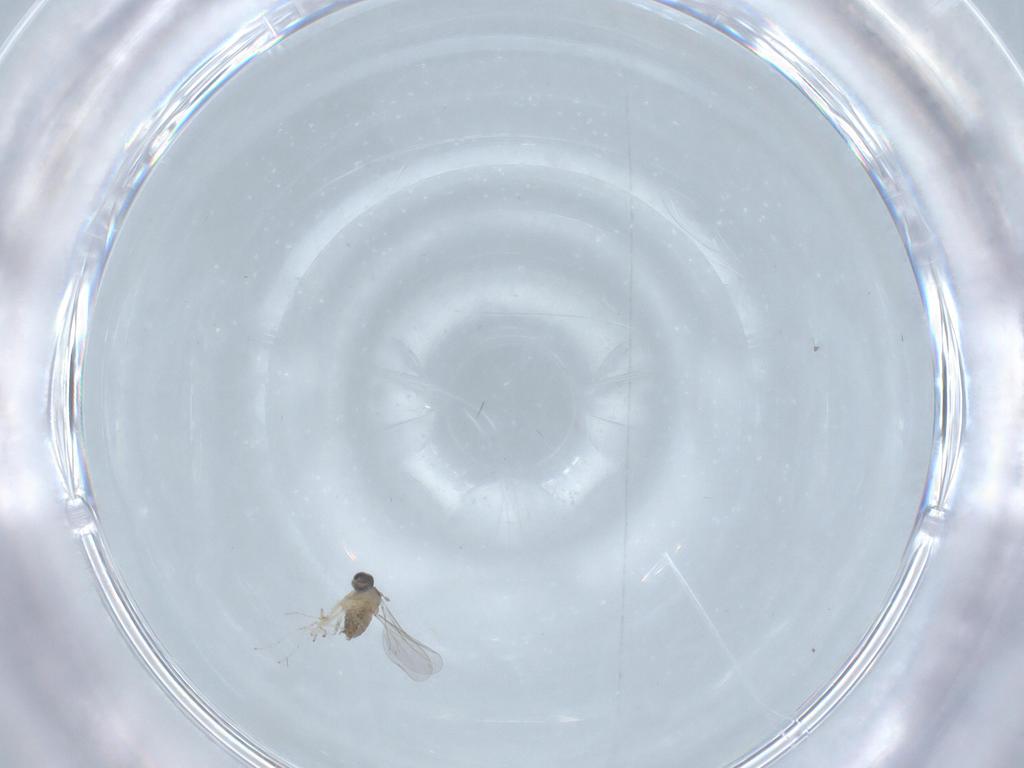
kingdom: Animalia
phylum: Arthropoda
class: Insecta
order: Diptera
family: Cecidomyiidae
